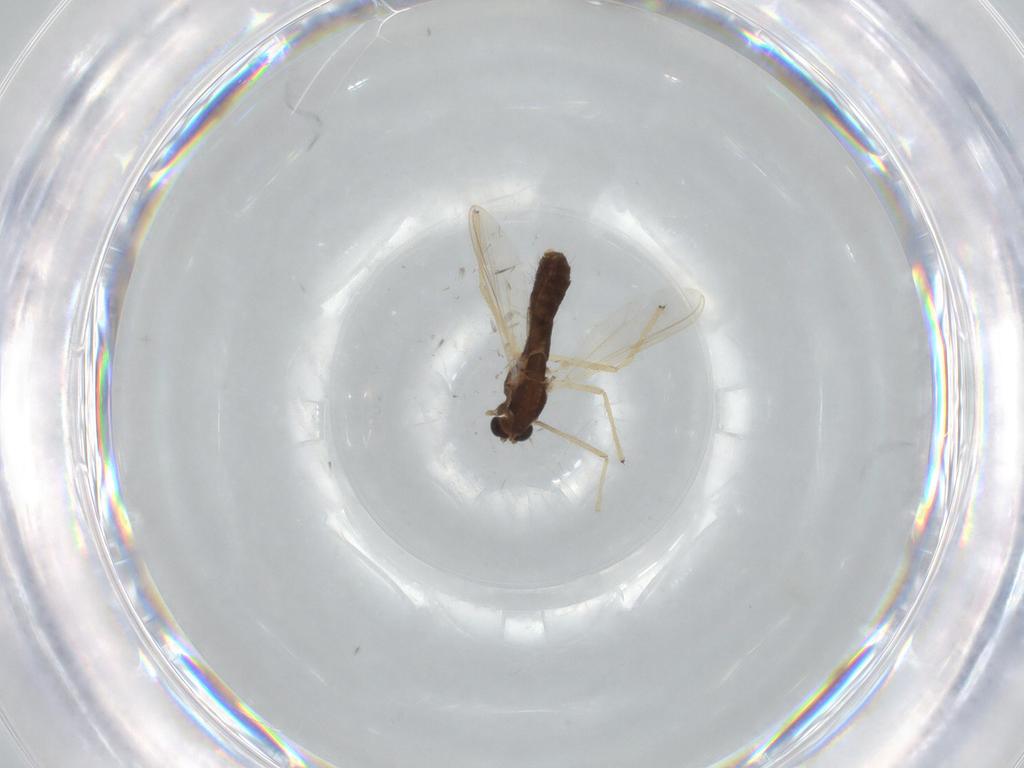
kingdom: Animalia
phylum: Arthropoda
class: Insecta
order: Diptera
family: Chironomidae
